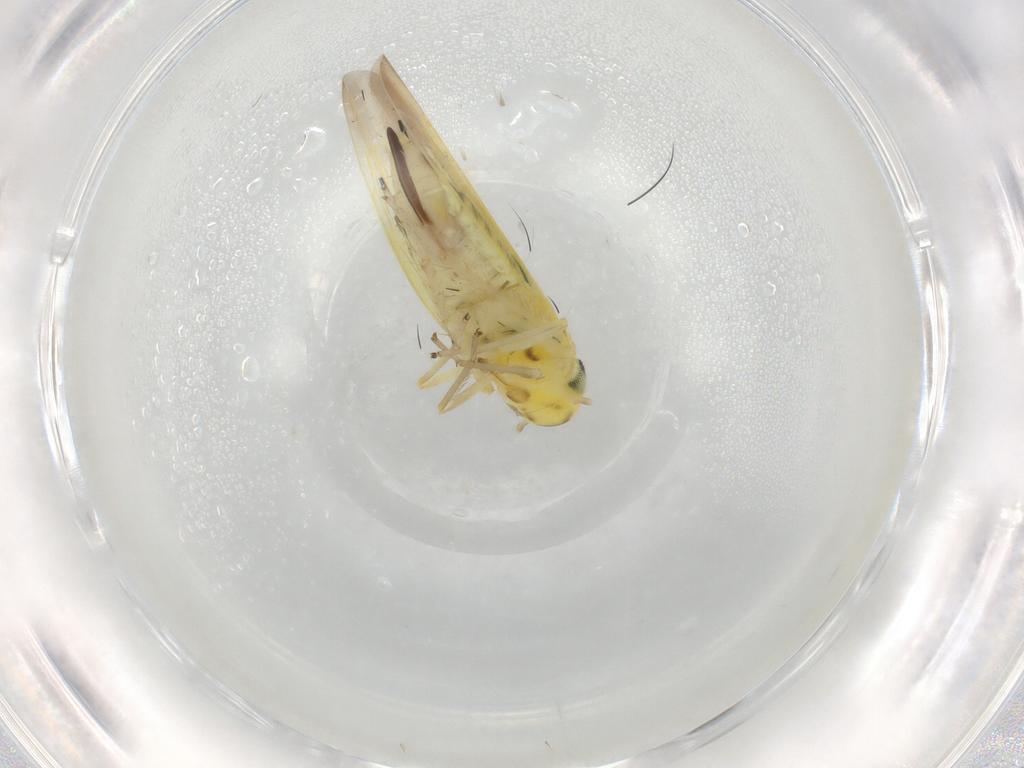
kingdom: Animalia
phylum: Arthropoda
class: Insecta
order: Hemiptera
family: Cicadellidae
